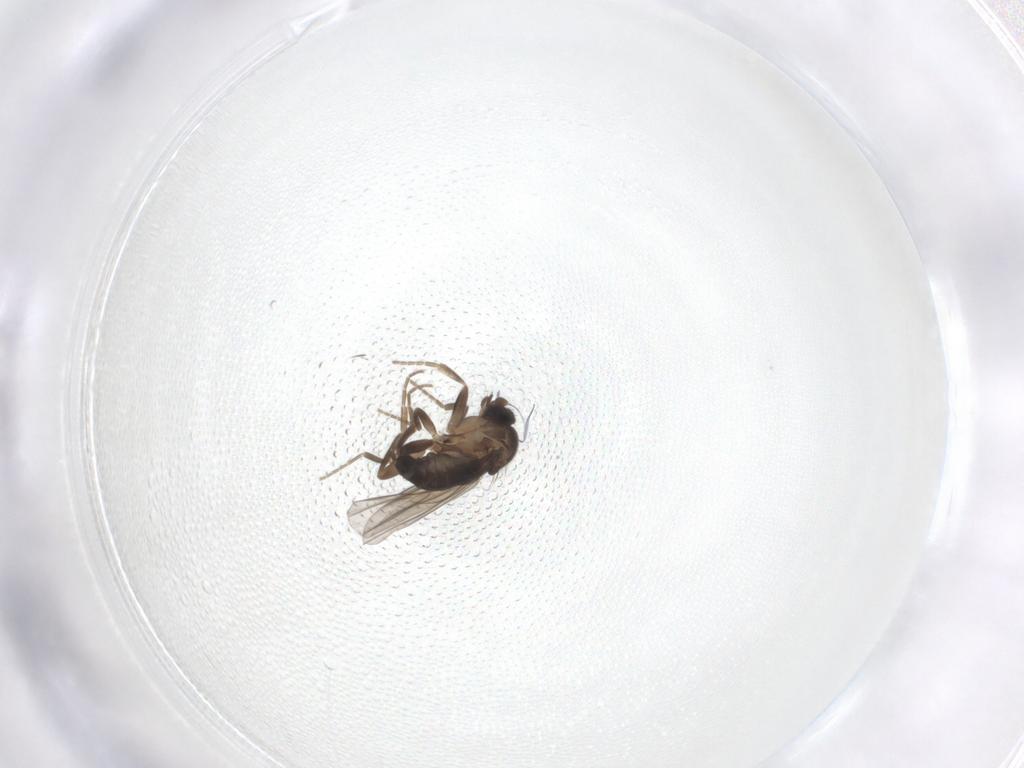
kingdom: Animalia
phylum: Arthropoda
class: Insecta
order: Diptera
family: Phoridae
